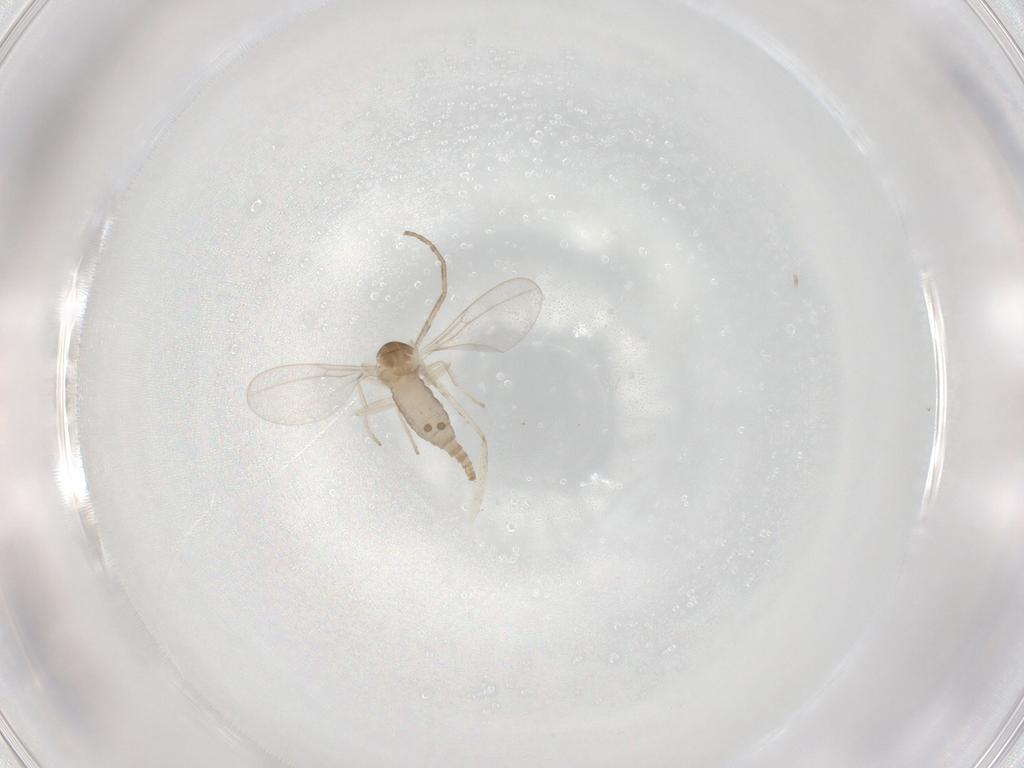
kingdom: Animalia
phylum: Arthropoda
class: Insecta
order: Diptera
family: Cecidomyiidae
